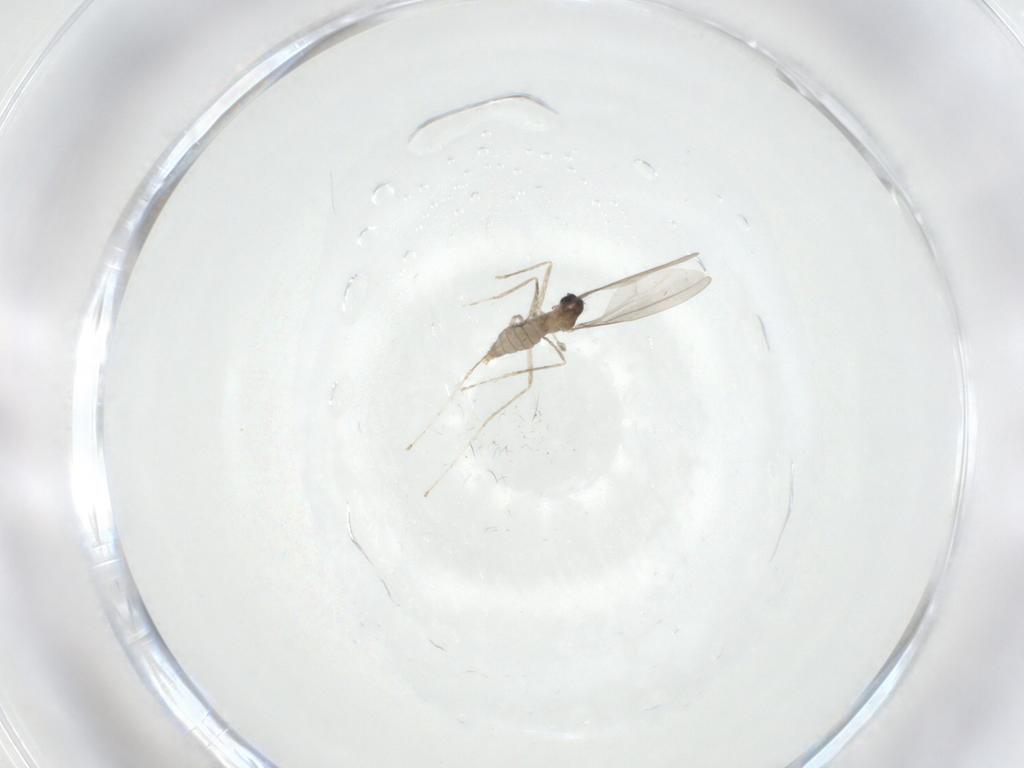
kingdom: Animalia
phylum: Arthropoda
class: Insecta
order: Diptera
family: Cecidomyiidae
